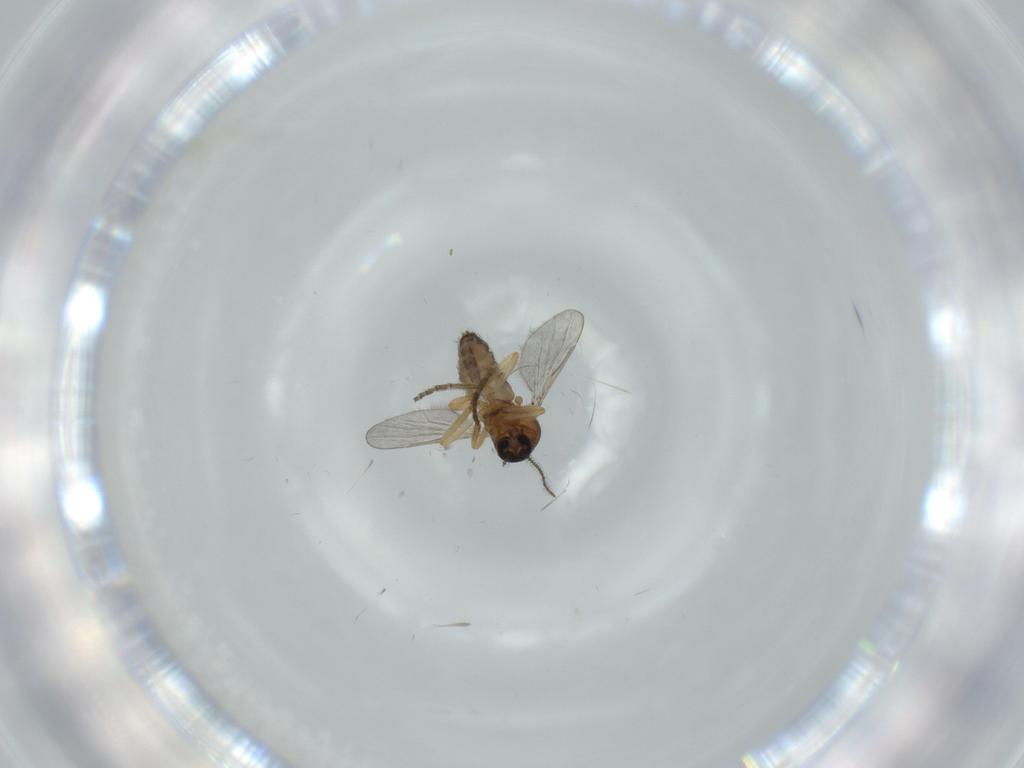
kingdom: Animalia
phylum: Arthropoda
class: Insecta
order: Diptera
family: Ceratopogonidae
